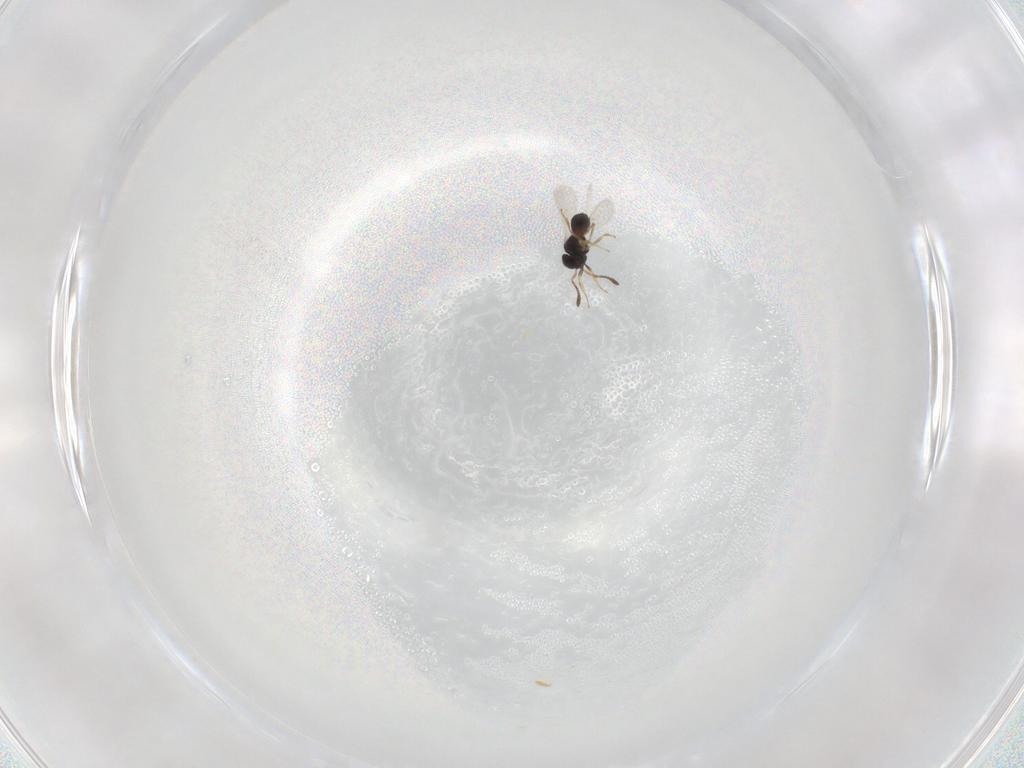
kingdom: Animalia
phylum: Arthropoda
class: Insecta
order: Hymenoptera
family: Scelionidae
